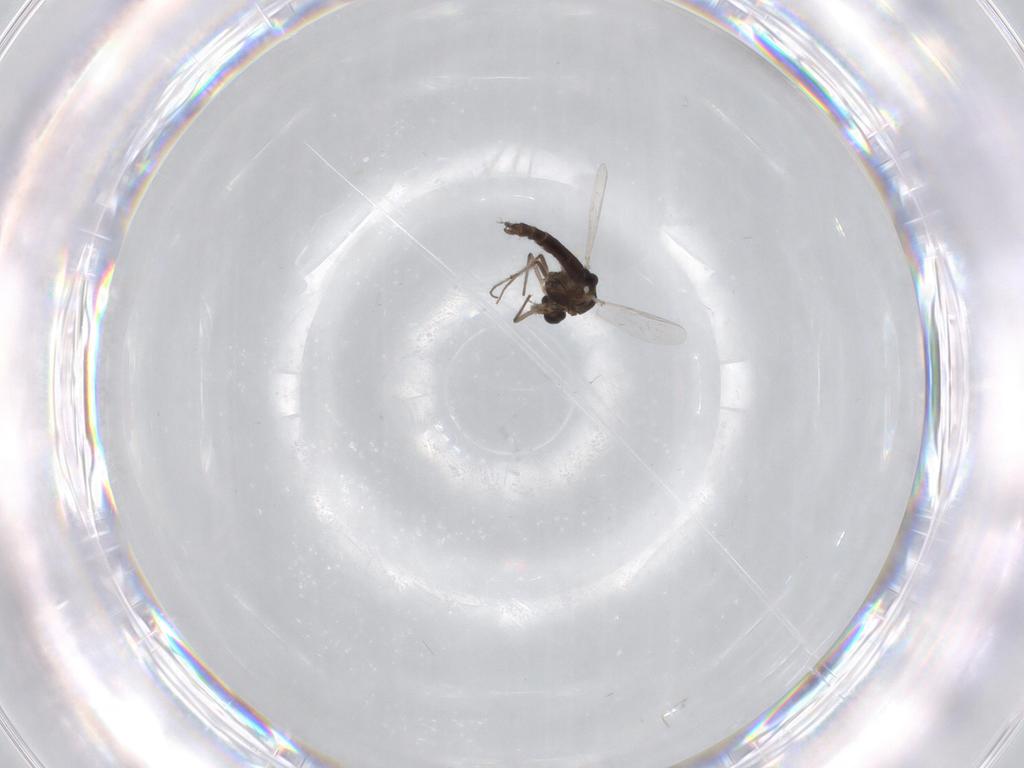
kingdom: Animalia
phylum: Arthropoda
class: Insecta
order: Diptera
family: Chironomidae
